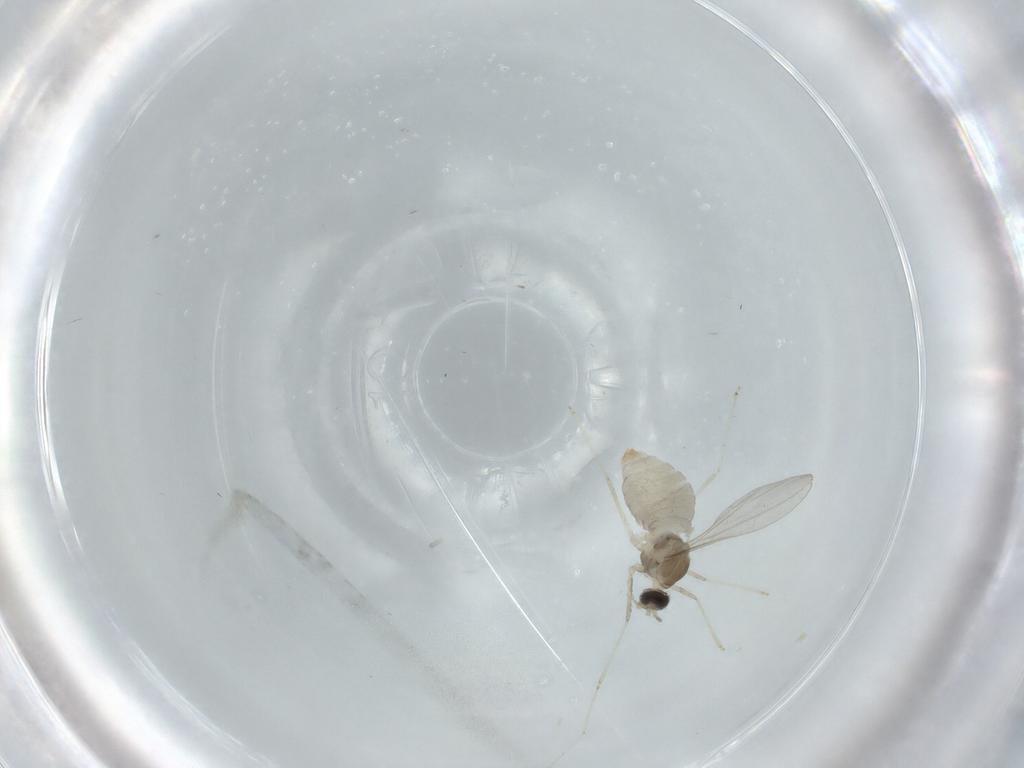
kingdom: Animalia
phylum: Arthropoda
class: Insecta
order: Diptera
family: Cecidomyiidae
